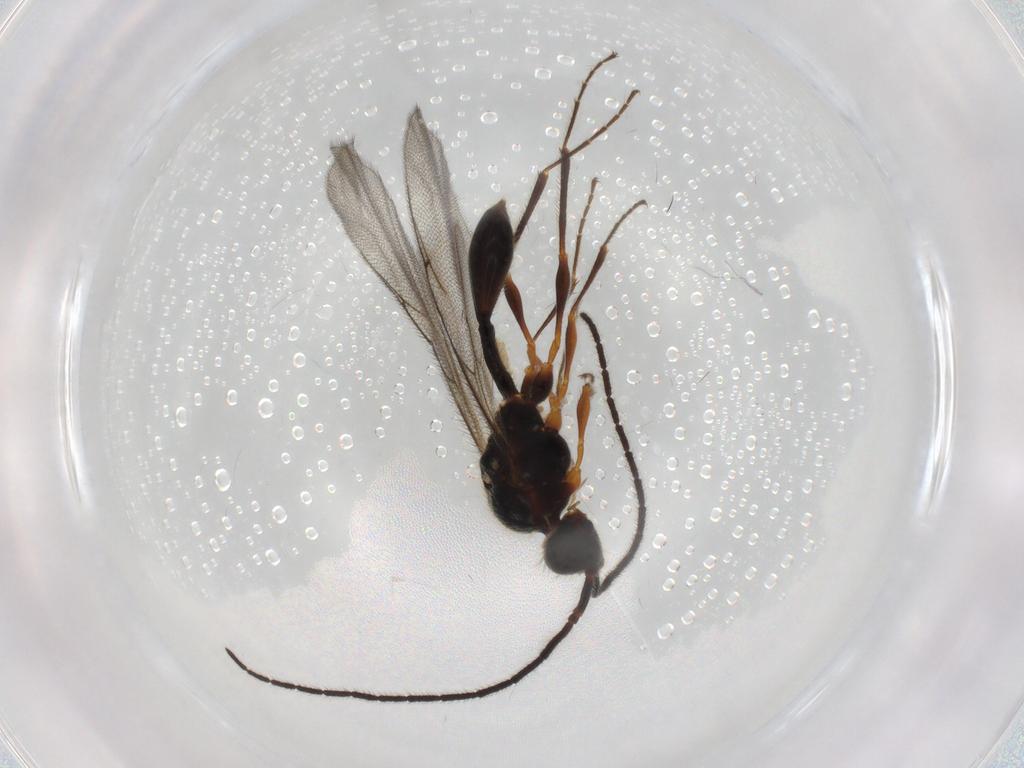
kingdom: Animalia
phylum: Arthropoda
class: Insecta
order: Hymenoptera
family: Diapriidae
